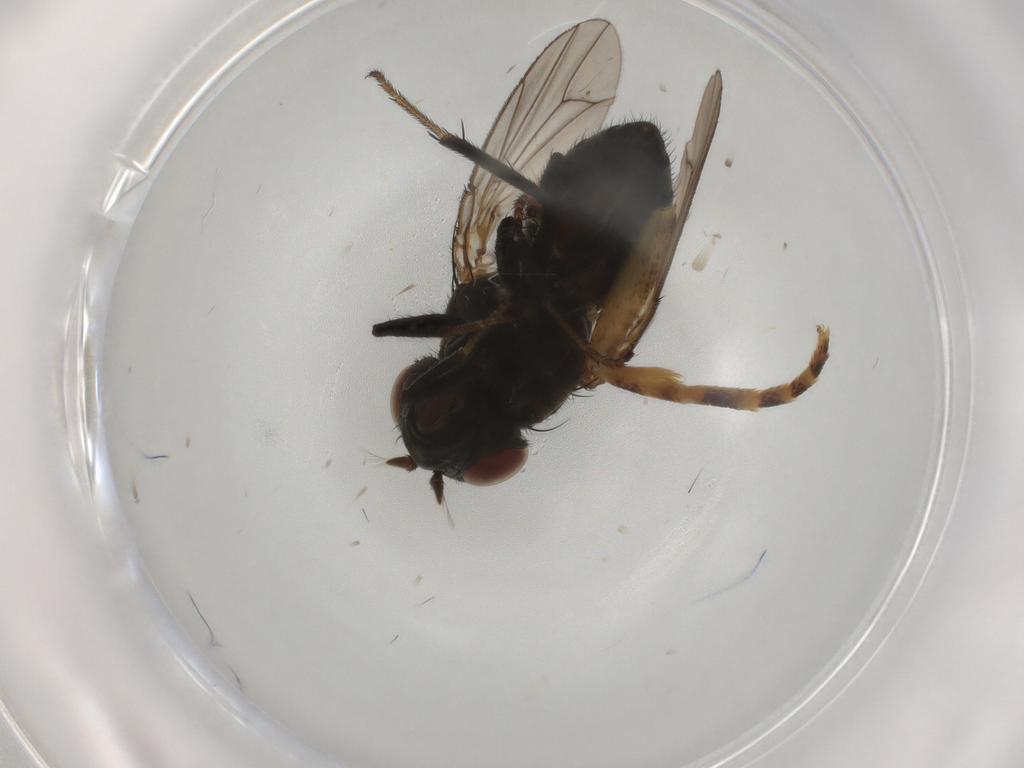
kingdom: Animalia
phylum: Arthropoda
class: Insecta
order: Diptera
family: Ephydridae
